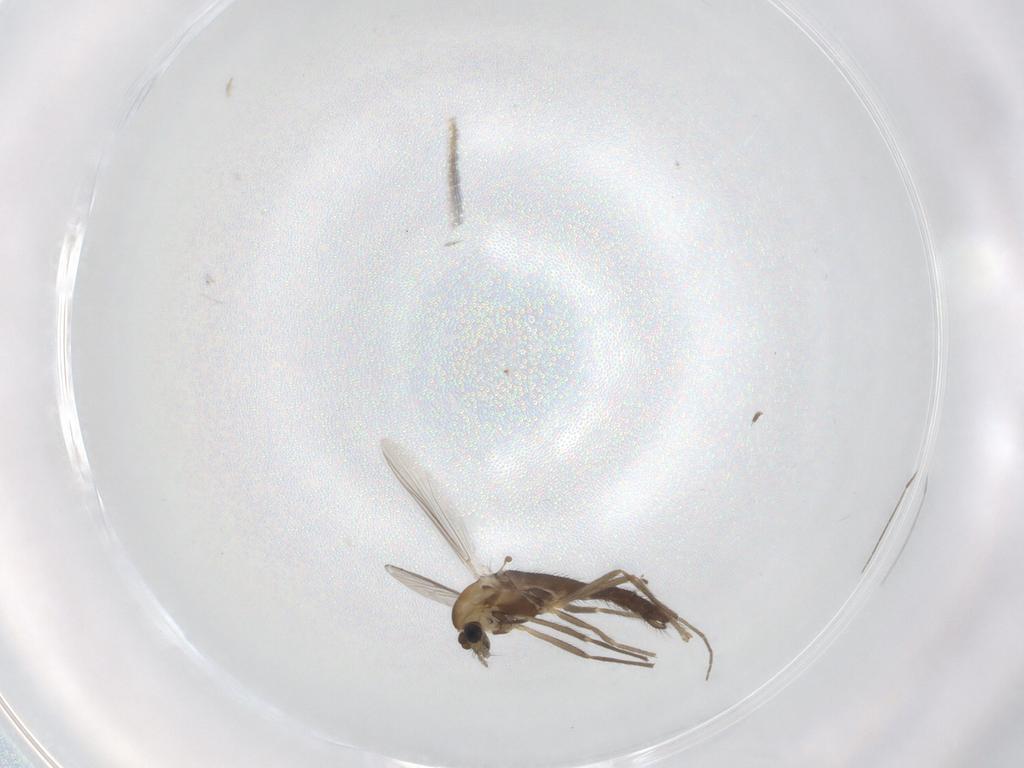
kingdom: Animalia
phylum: Arthropoda
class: Insecta
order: Diptera
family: Chironomidae
